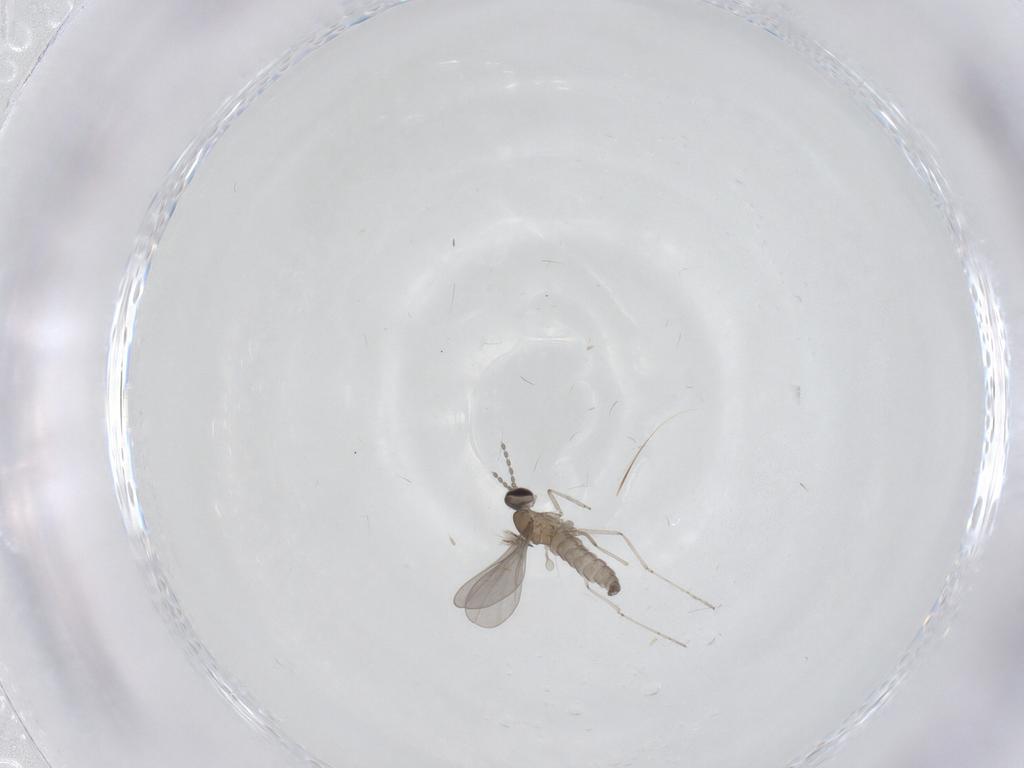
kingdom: Animalia
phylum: Arthropoda
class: Insecta
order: Diptera
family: Cecidomyiidae
